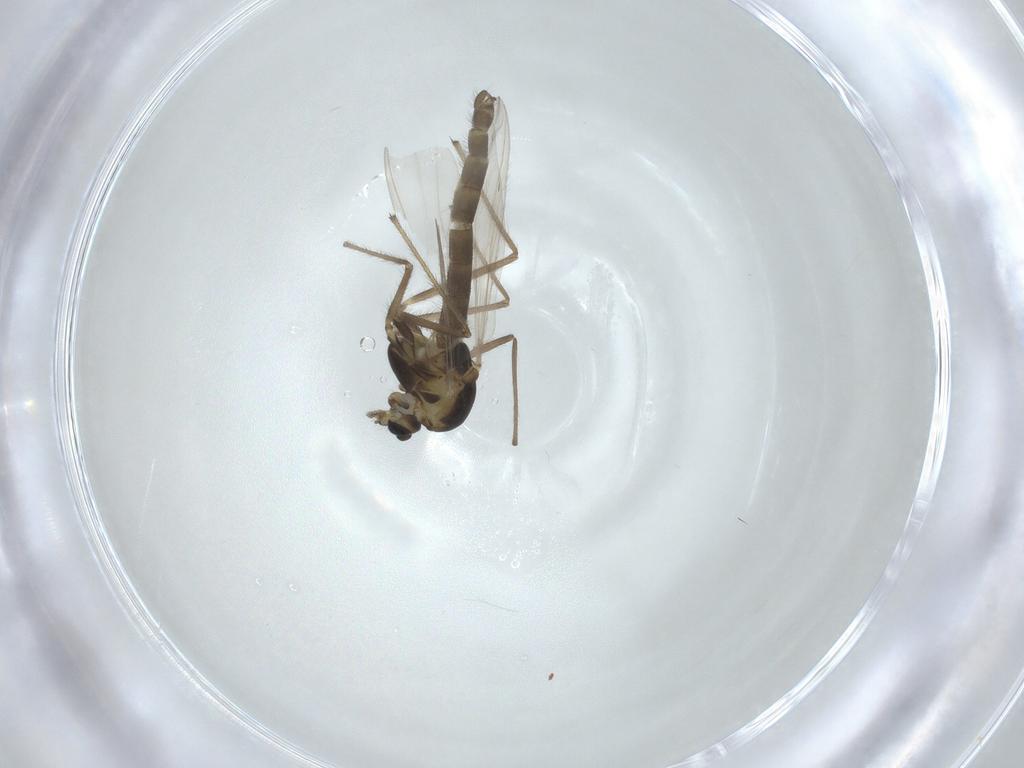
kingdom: Animalia
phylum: Arthropoda
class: Insecta
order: Diptera
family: Chironomidae
